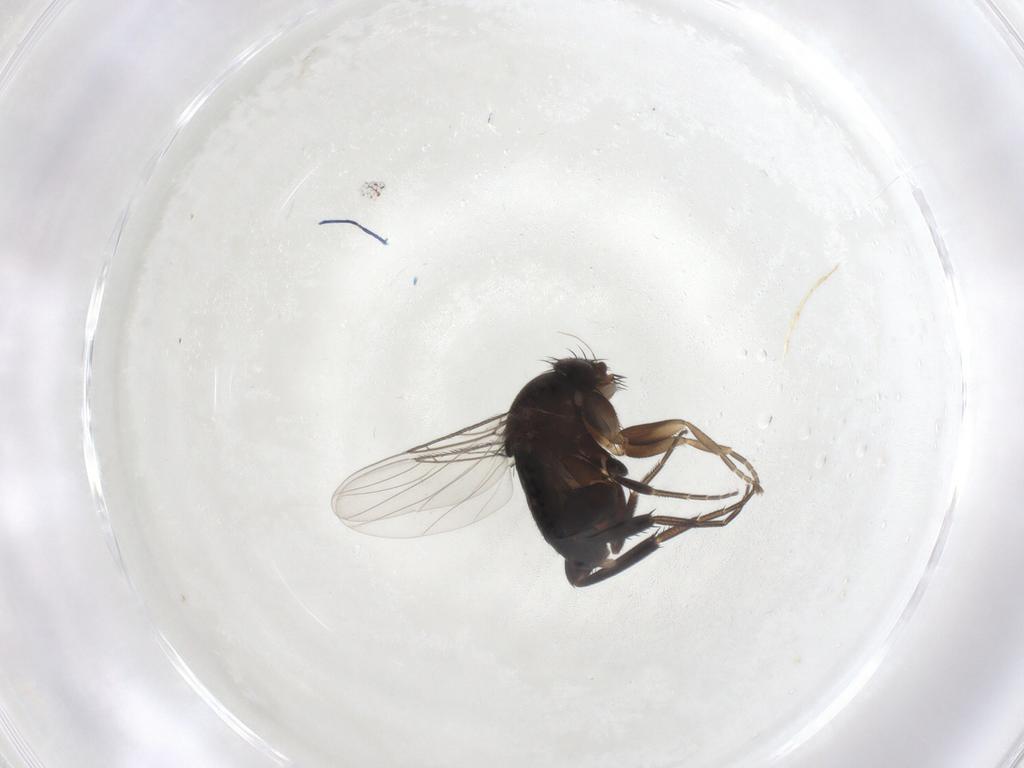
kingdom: Animalia
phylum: Arthropoda
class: Insecta
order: Diptera
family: Phoridae
